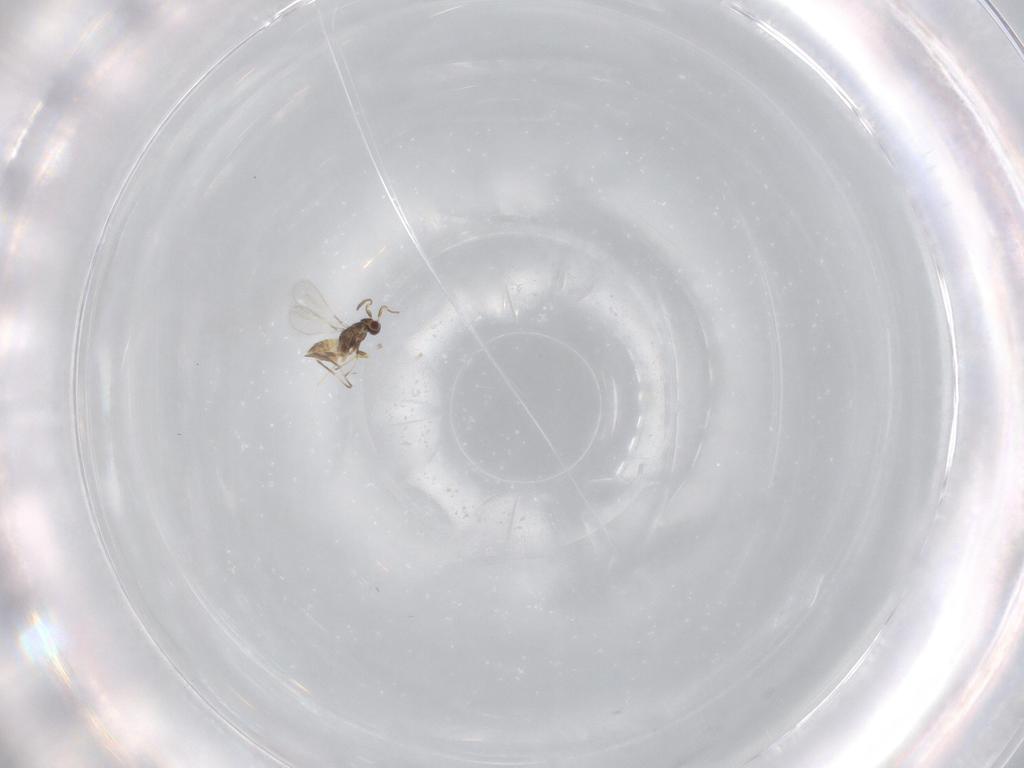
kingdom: Animalia
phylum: Arthropoda
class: Insecta
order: Hymenoptera
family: Mymaridae
